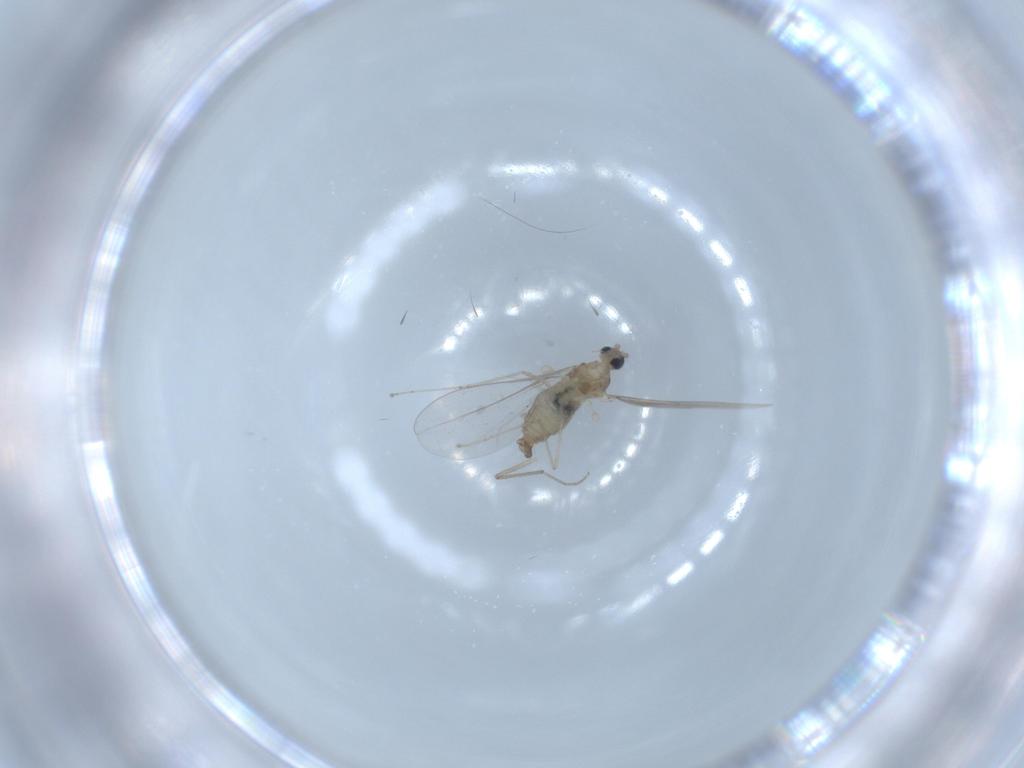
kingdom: Animalia
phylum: Arthropoda
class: Insecta
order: Diptera
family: Cecidomyiidae
